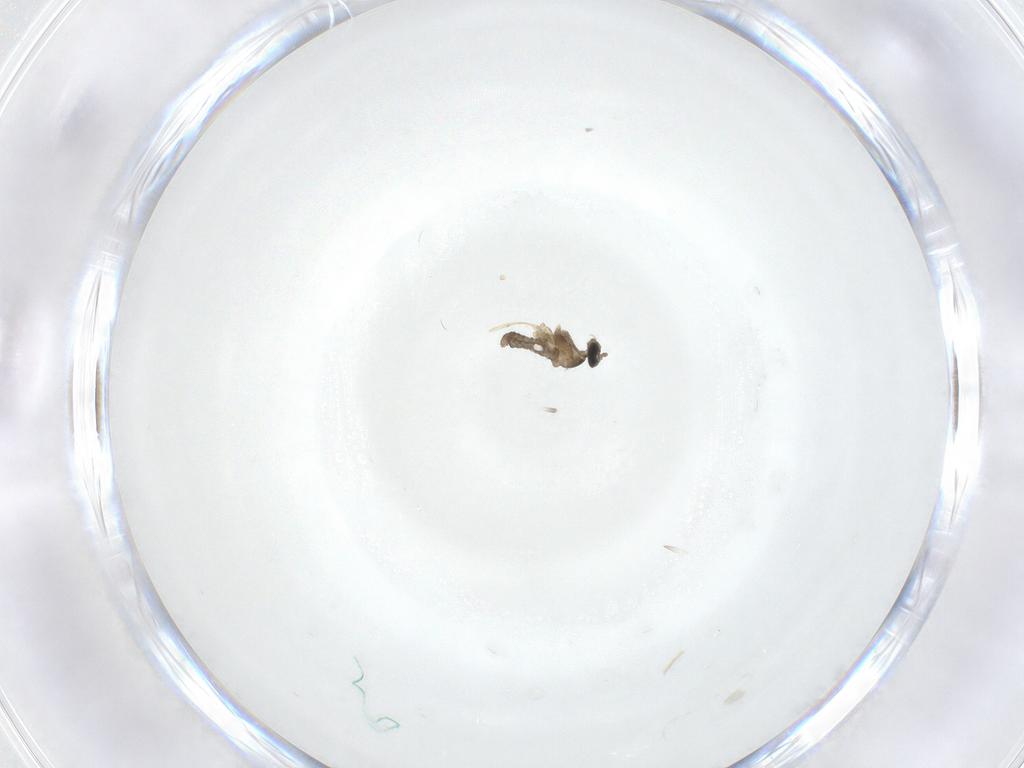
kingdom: Animalia
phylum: Arthropoda
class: Insecta
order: Diptera
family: Cecidomyiidae
